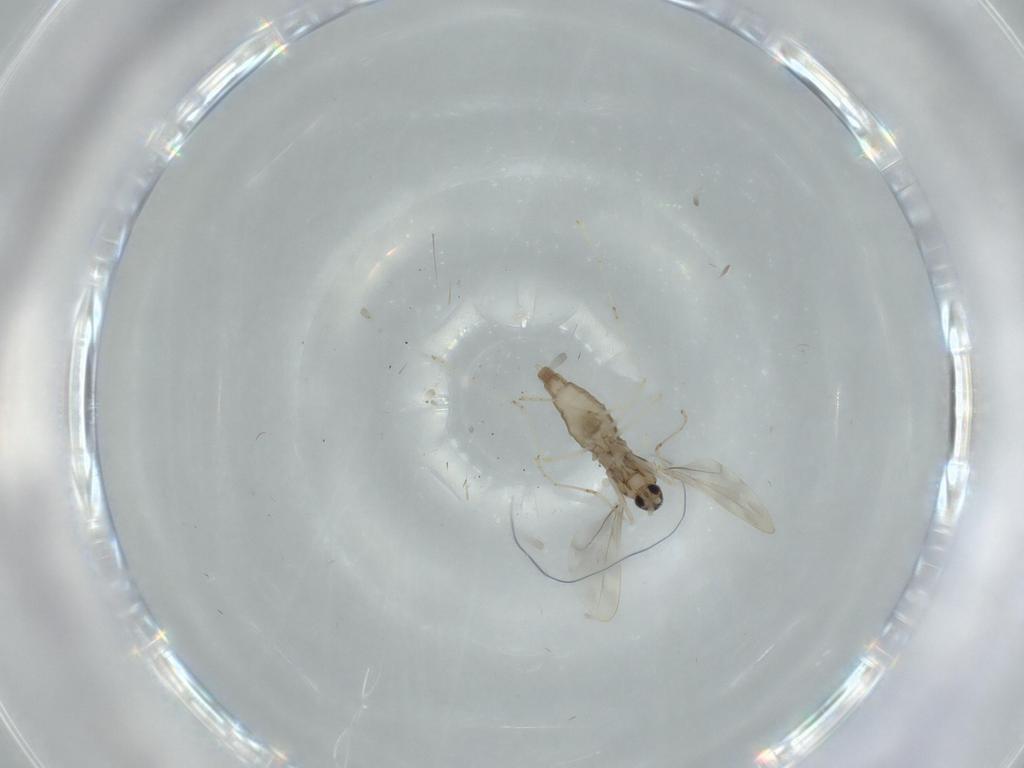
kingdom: Animalia
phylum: Arthropoda
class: Insecta
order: Diptera
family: Cecidomyiidae
